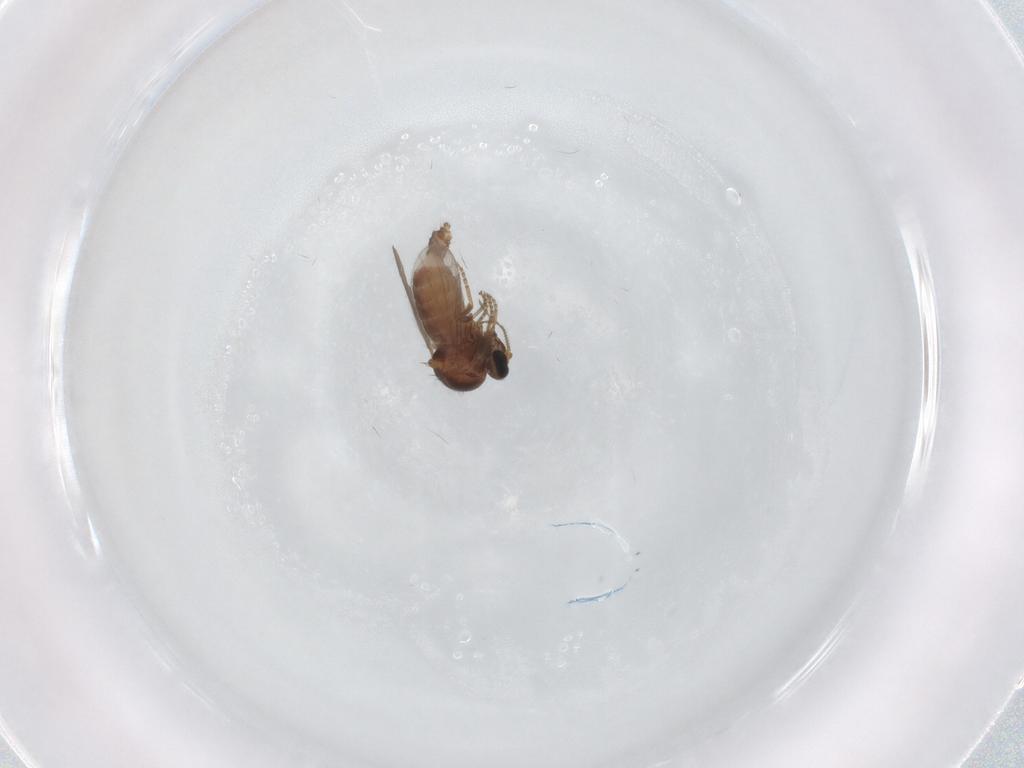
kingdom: Animalia
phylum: Arthropoda
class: Insecta
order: Diptera
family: Ceratopogonidae
